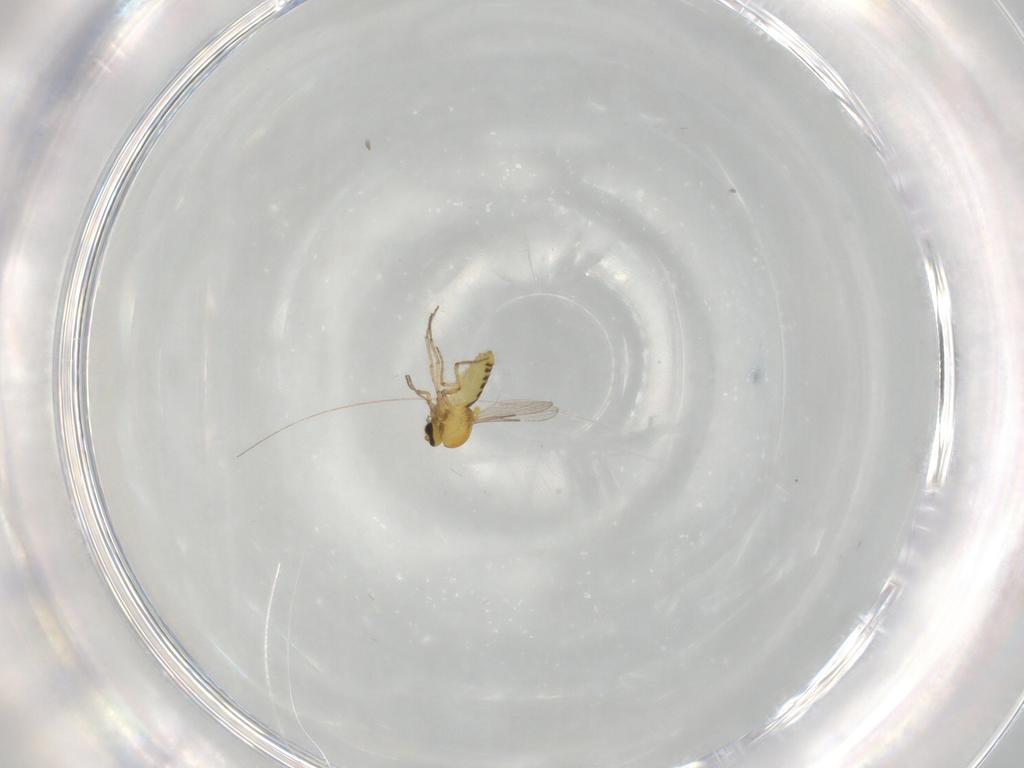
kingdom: Animalia
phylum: Arthropoda
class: Insecta
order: Diptera
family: Ceratopogonidae
